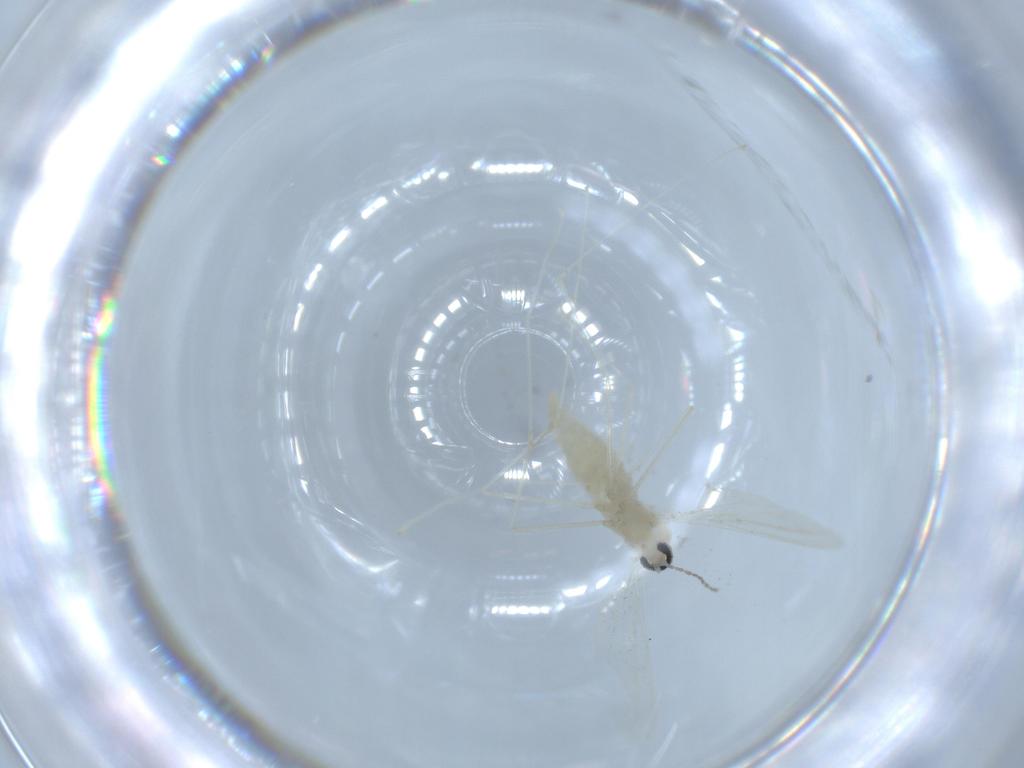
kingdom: Animalia
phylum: Arthropoda
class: Insecta
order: Diptera
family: Cecidomyiidae
